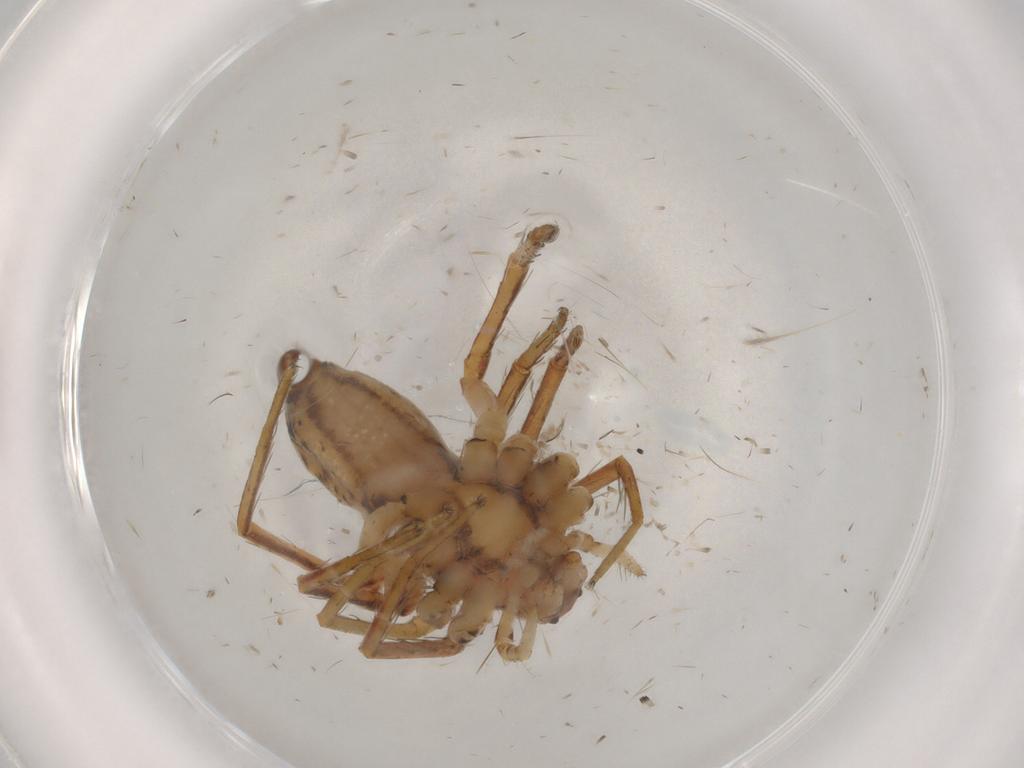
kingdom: Animalia
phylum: Arthropoda
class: Arachnida
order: Araneae
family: Pisauridae
